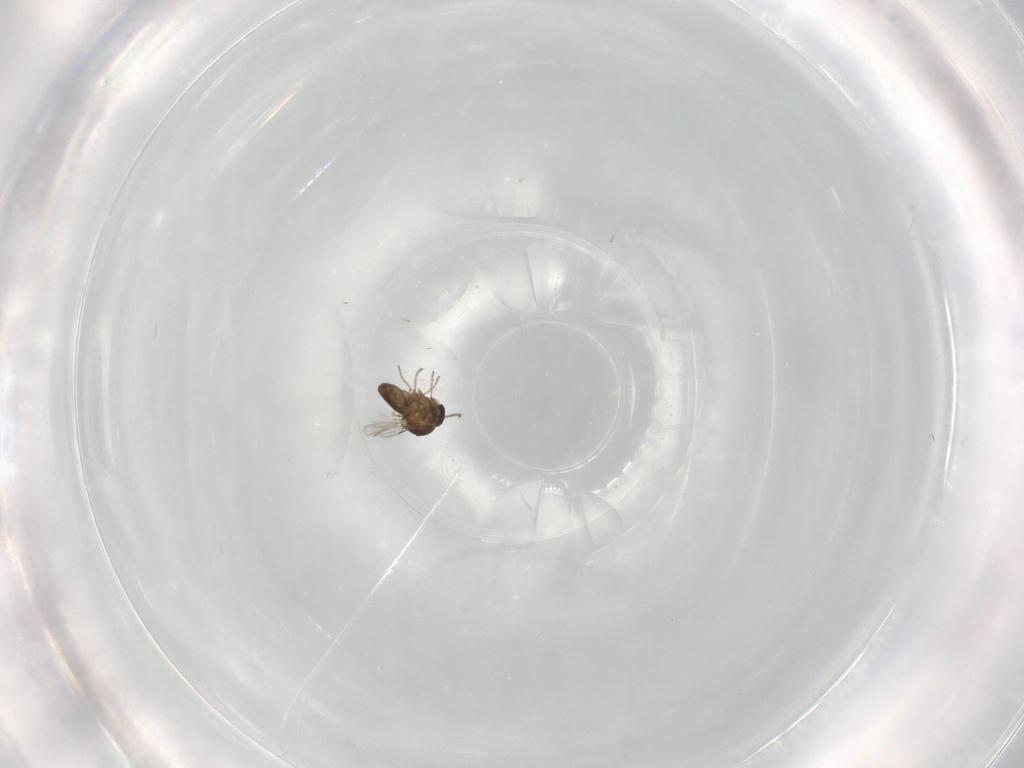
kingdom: Animalia
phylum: Arthropoda
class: Insecta
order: Diptera
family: Ceratopogonidae
